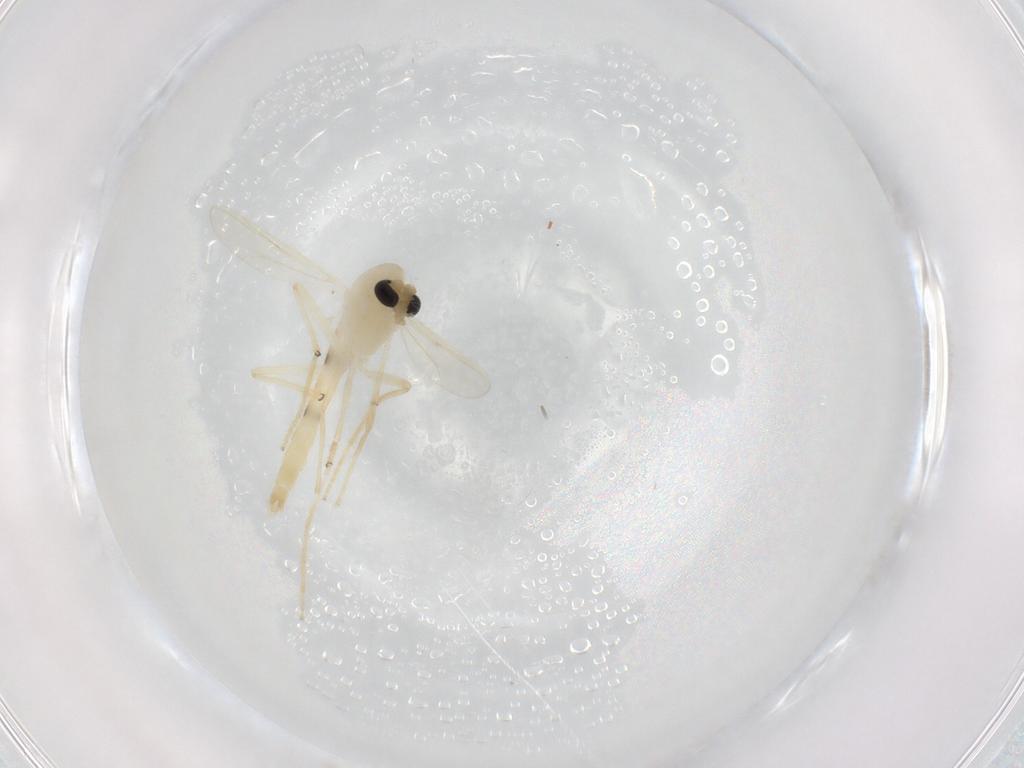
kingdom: Animalia
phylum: Arthropoda
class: Insecta
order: Diptera
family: Chironomidae
